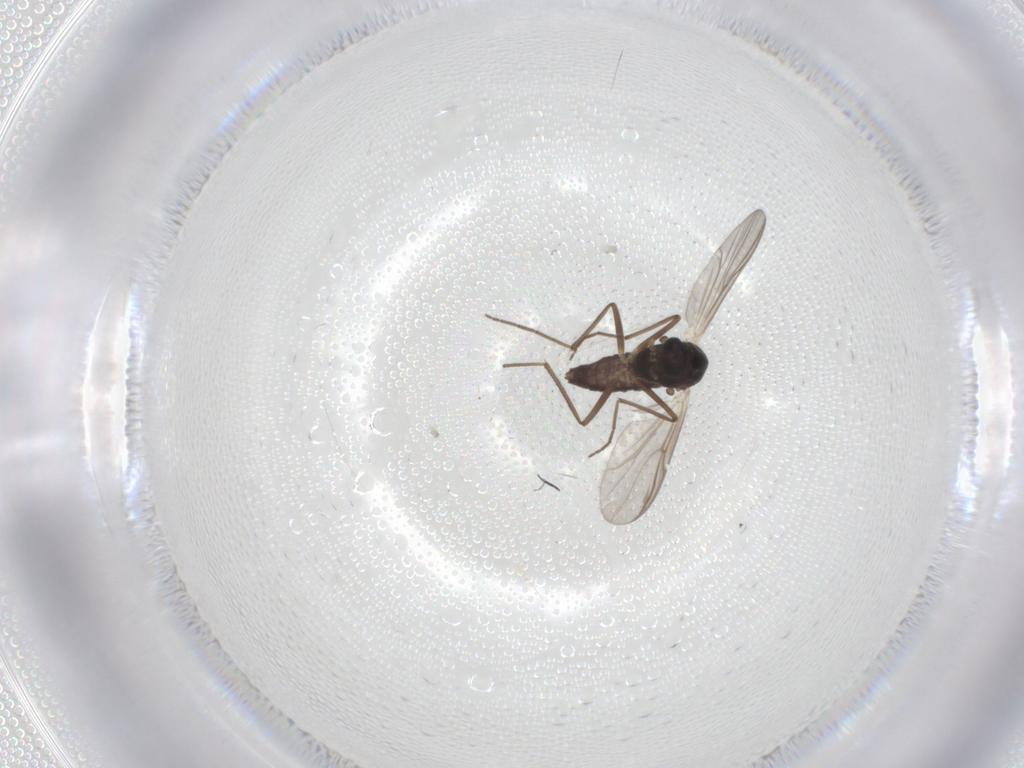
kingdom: Animalia
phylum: Arthropoda
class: Insecta
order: Diptera
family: Chironomidae
